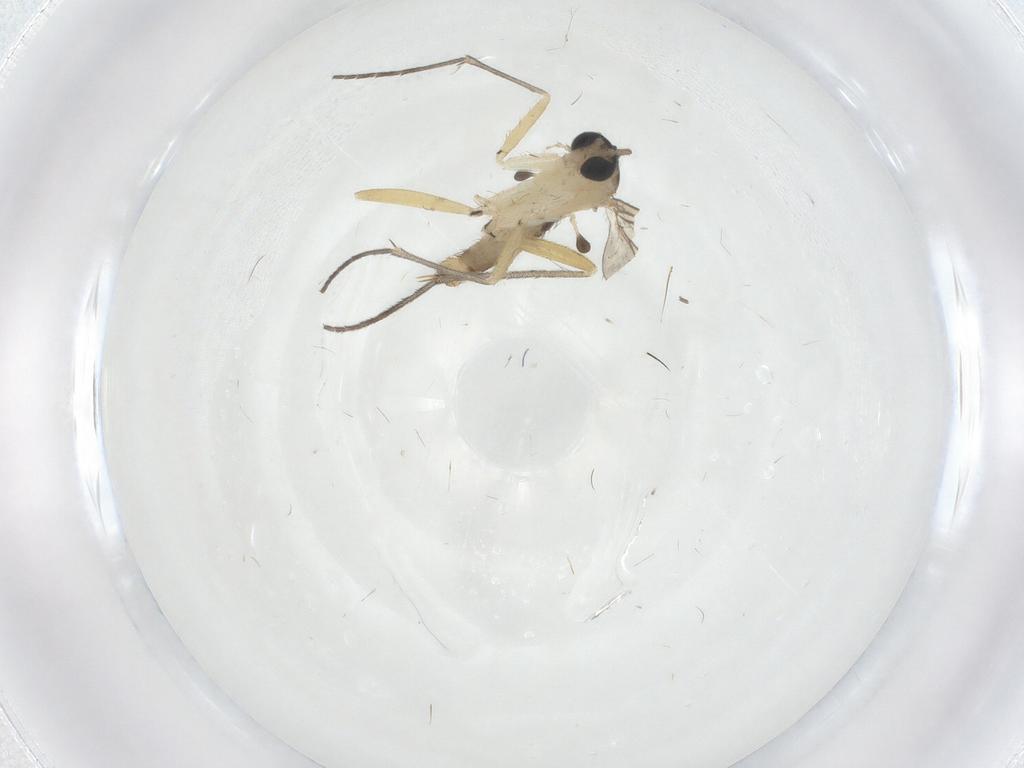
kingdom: Animalia
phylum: Arthropoda
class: Insecta
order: Diptera
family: Sciaridae
